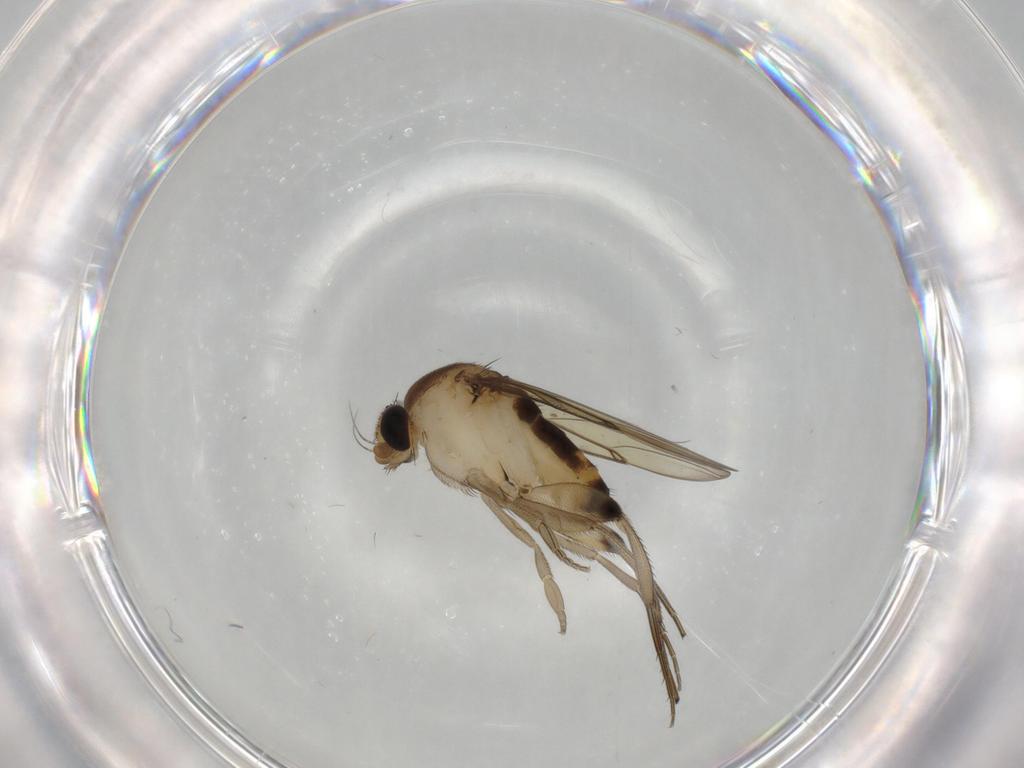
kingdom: Animalia
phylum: Arthropoda
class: Insecta
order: Diptera
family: Phoridae
